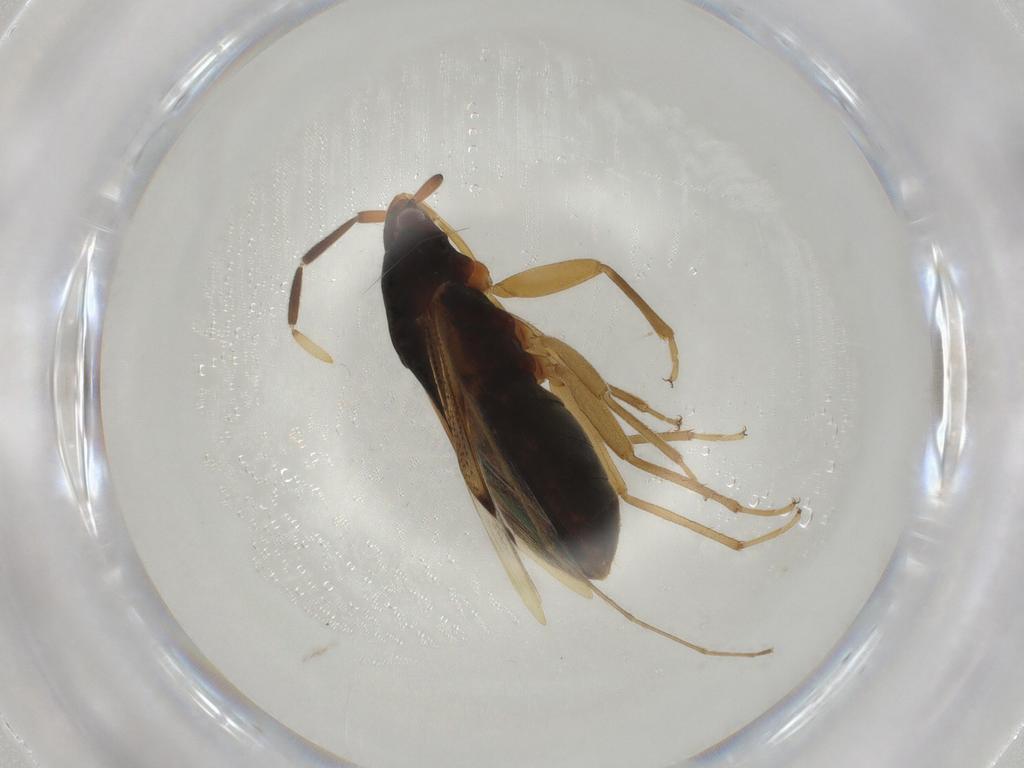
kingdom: Animalia
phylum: Arthropoda
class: Insecta
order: Hemiptera
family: Rhyparochromidae
